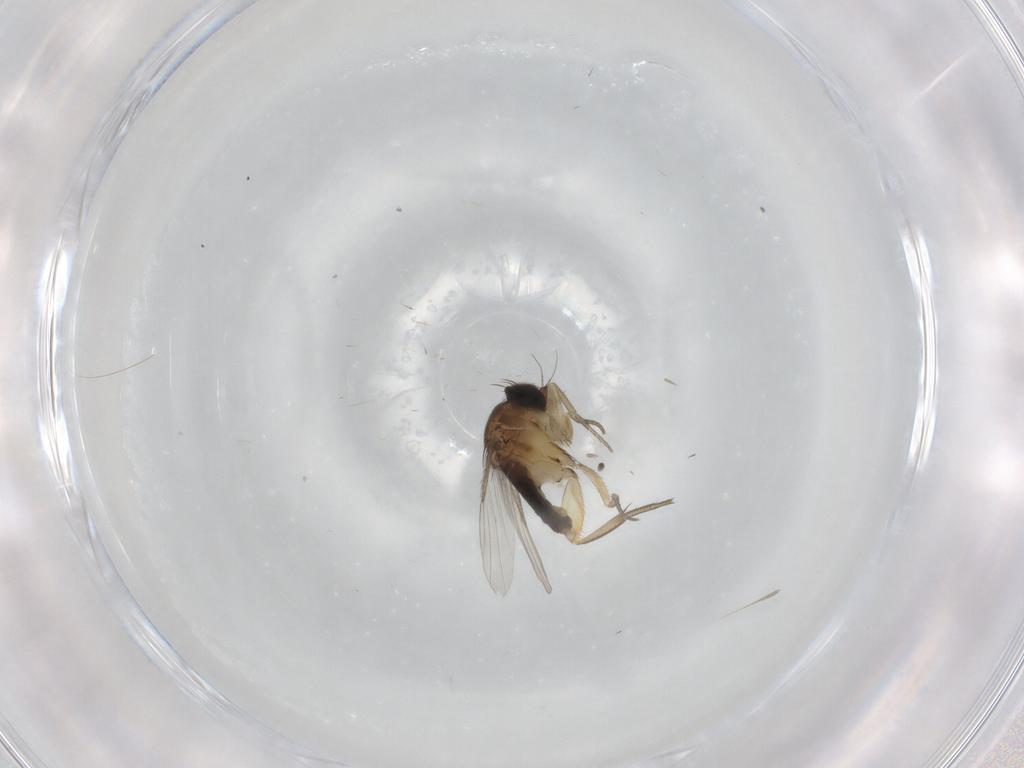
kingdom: Animalia
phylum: Arthropoda
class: Insecta
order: Diptera
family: Phoridae
